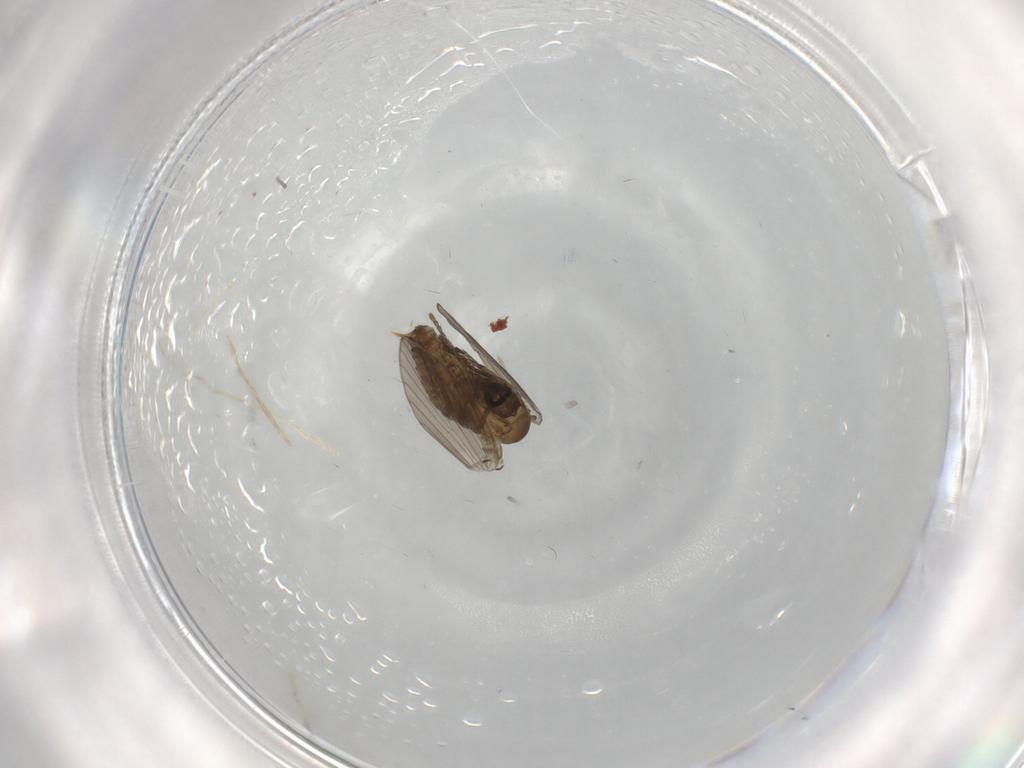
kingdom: Animalia
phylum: Arthropoda
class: Insecta
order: Diptera
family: Psychodidae
